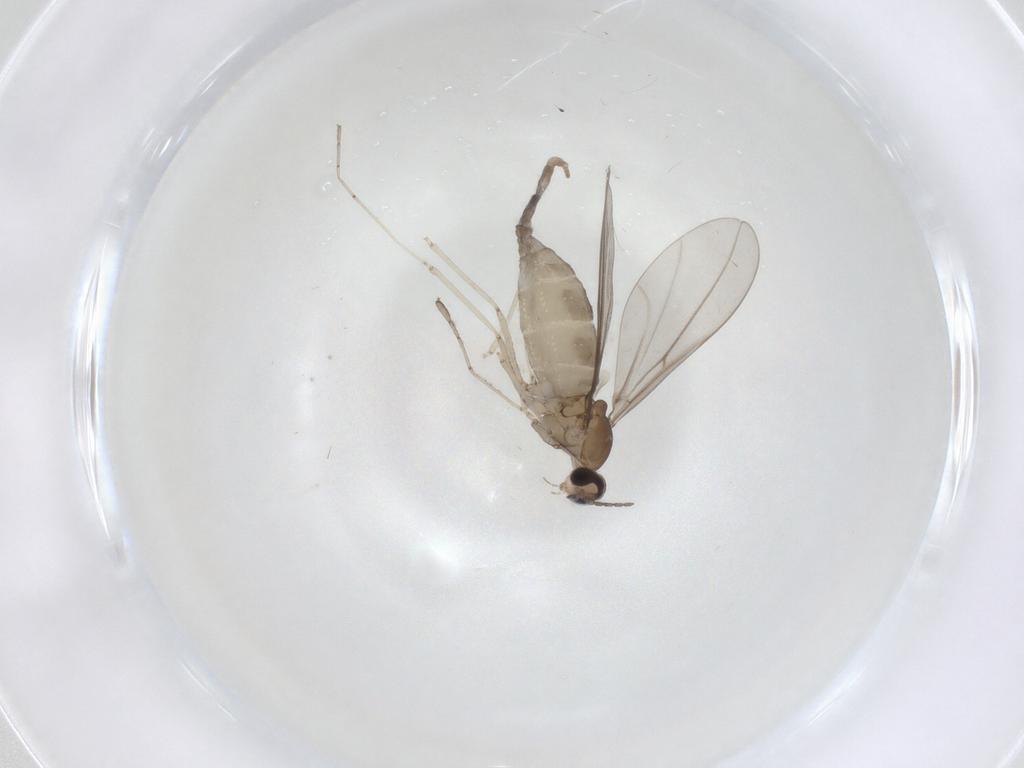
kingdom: Animalia
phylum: Arthropoda
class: Insecta
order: Diptera
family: Cecidomyiidae
